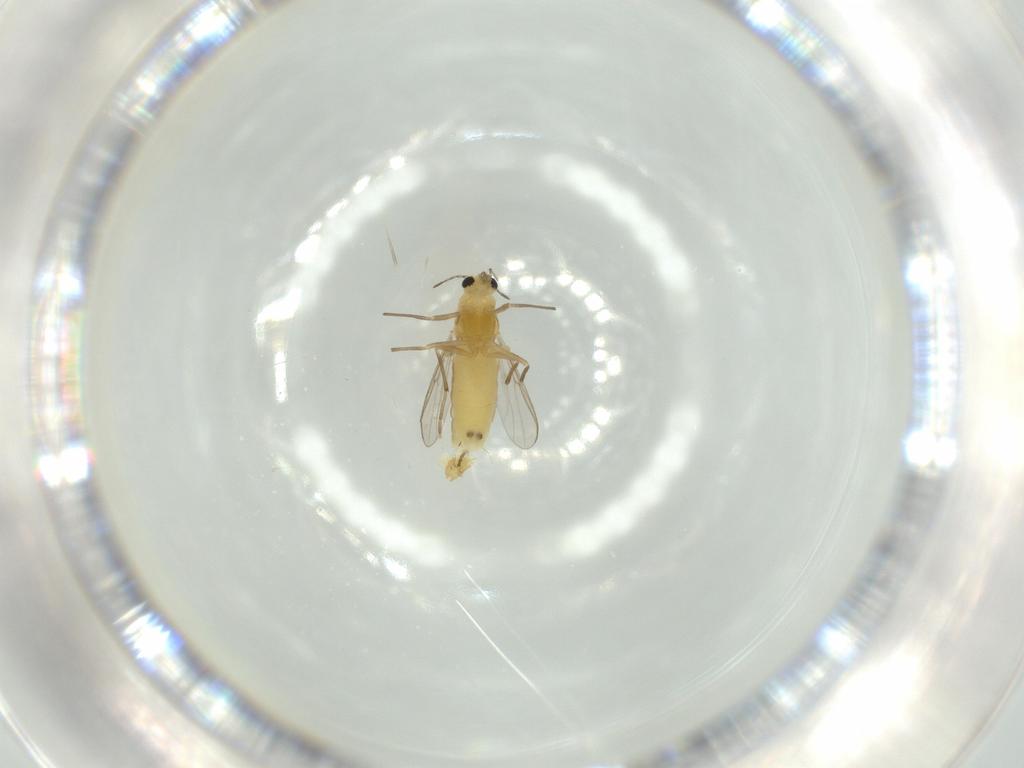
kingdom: Animalia
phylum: Arthropoda
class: Insecta
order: Diptera
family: Chironomidae
